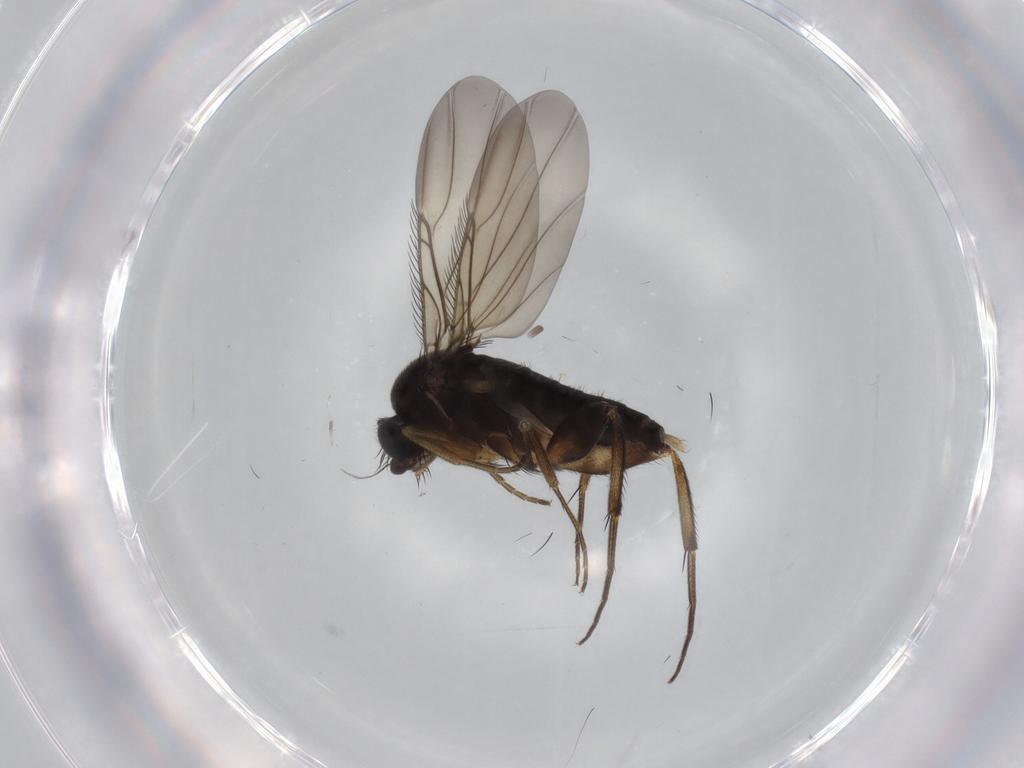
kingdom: Animalia
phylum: Arthropoda
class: Insecta
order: Diptera
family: Phoridae
